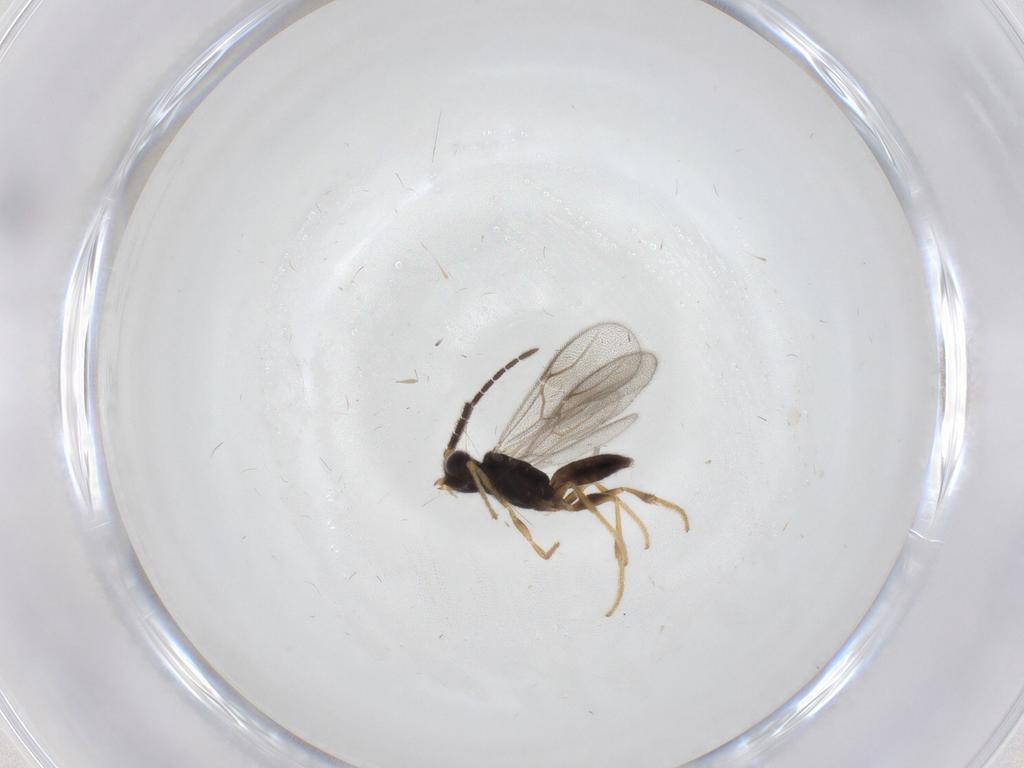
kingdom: Animalia
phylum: Arthropoda
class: Insecta
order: Hymenoptera
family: Dryinidae
